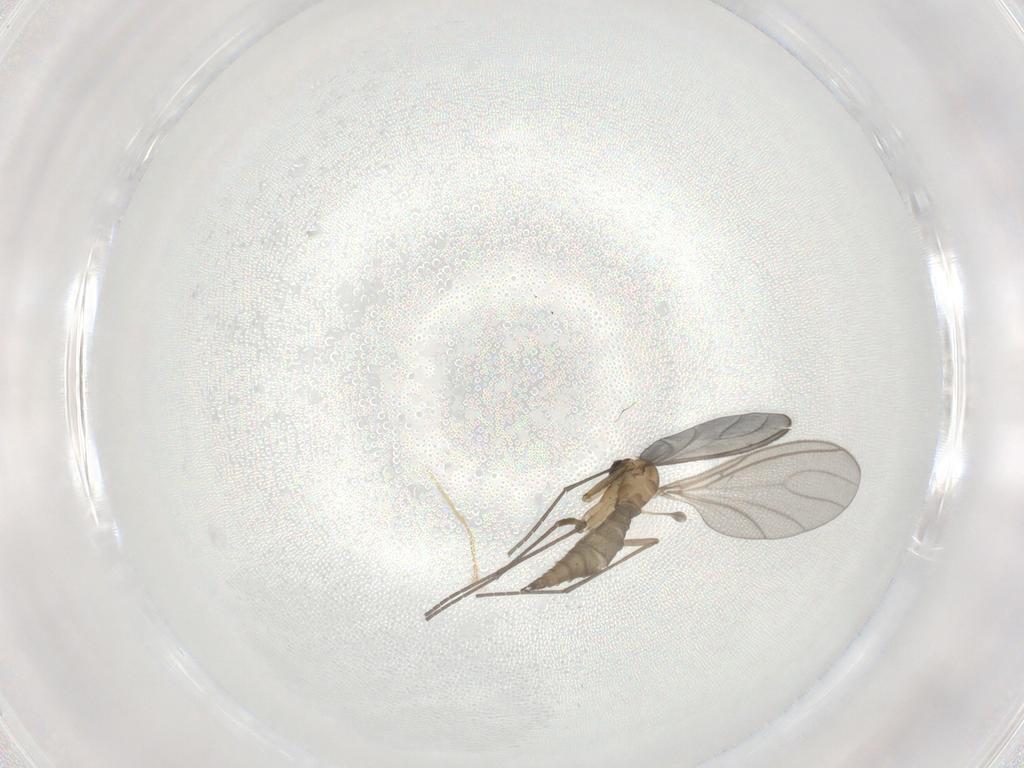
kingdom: Animalia
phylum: Arthropoda
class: Insecta
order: Diptera
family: Sciaridae
